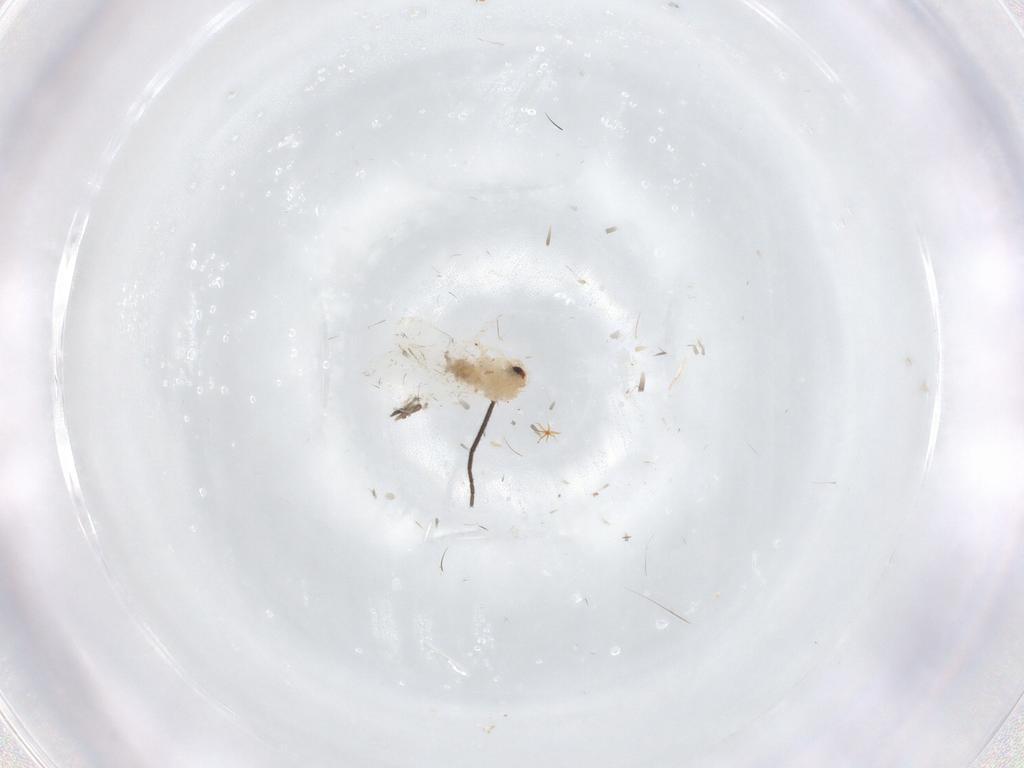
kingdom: Animalia
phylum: Arthropoda
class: Insecta
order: Hemiptera
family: Aleyrodidae
